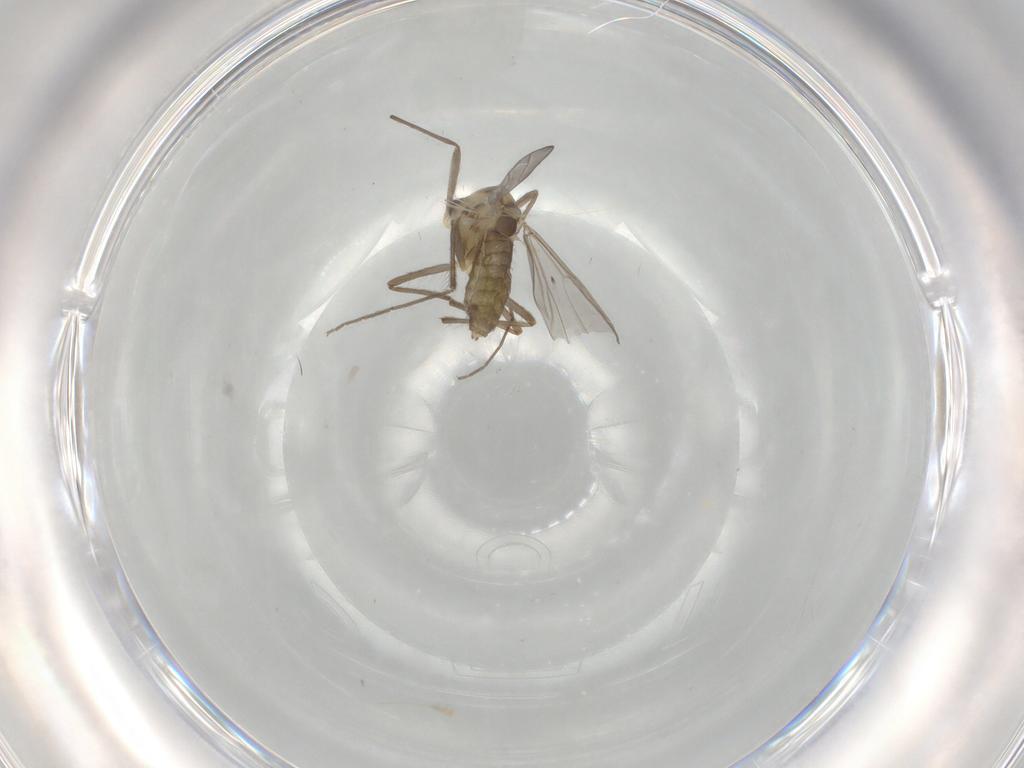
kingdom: Animalia
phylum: Arthropoda
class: Insecta
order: Diptera
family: Chironomidae
